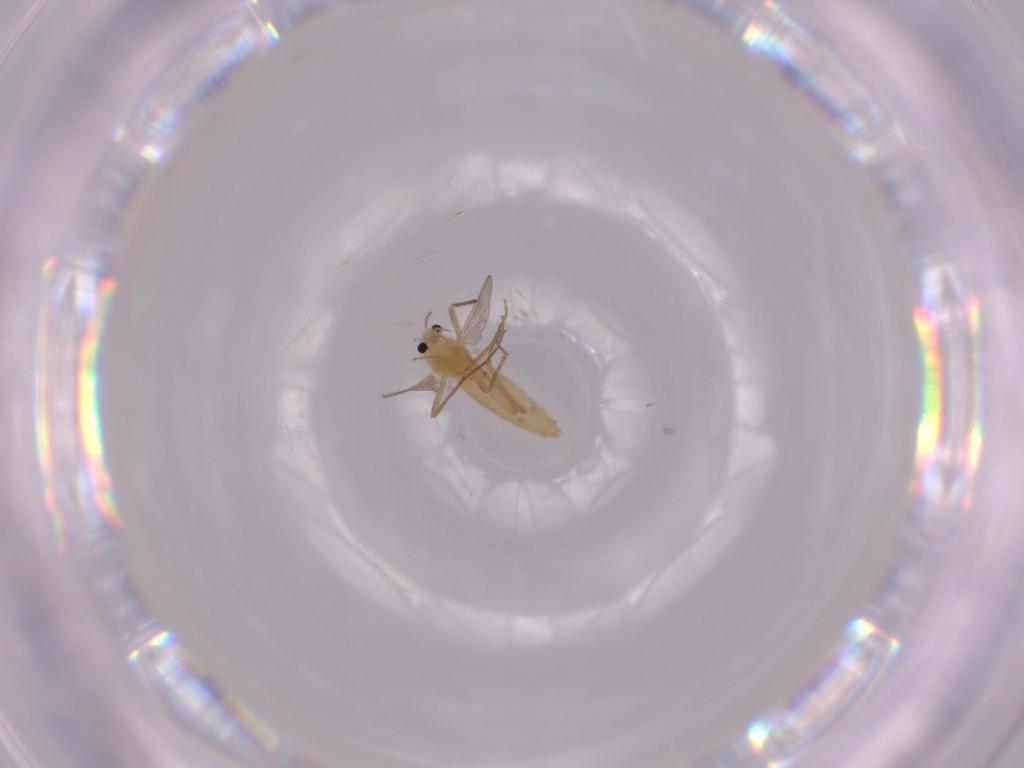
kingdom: Animalia
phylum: Arthropoda
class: Insecta
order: Diptera
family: Chironomidae
